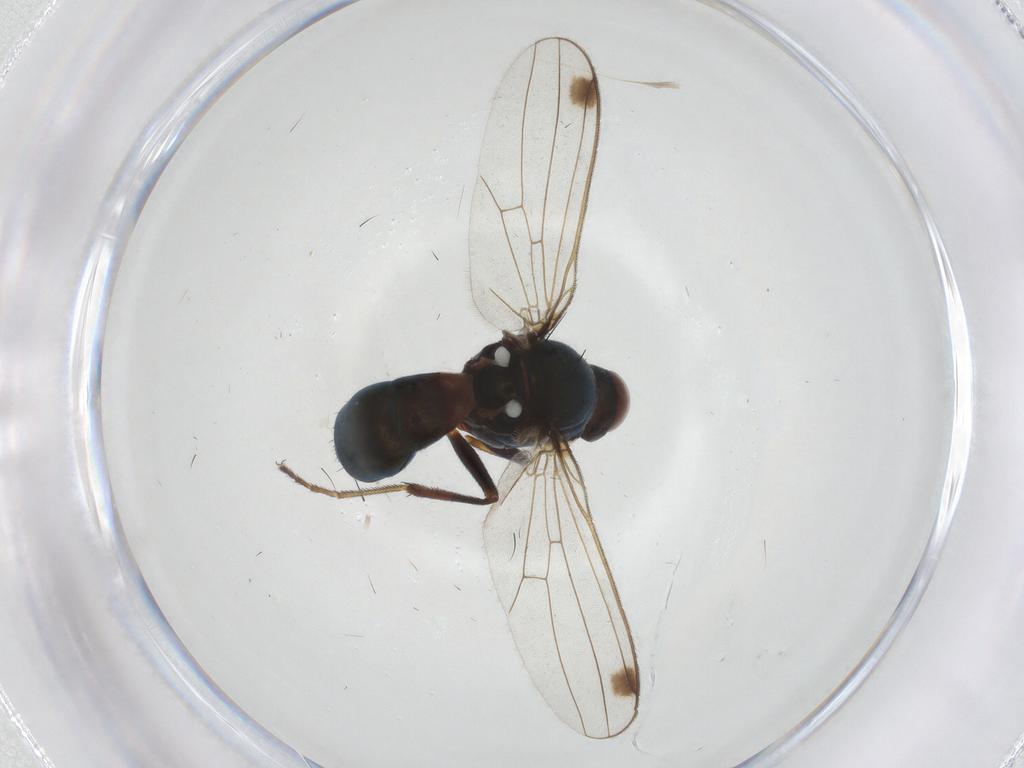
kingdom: Animalia
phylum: Arthropoda
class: Insecta
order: Diptera
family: Sepsidae
